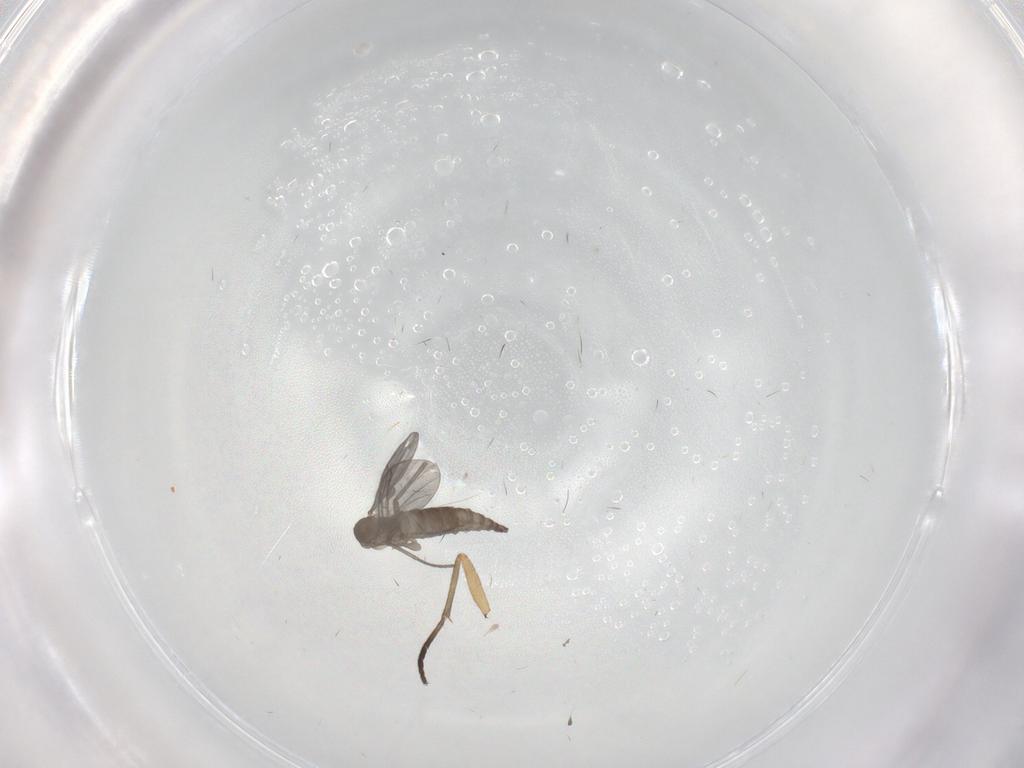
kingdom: Animalia
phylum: Arthropoda
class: Insecta
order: Diptera
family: Cecidomyiidae
